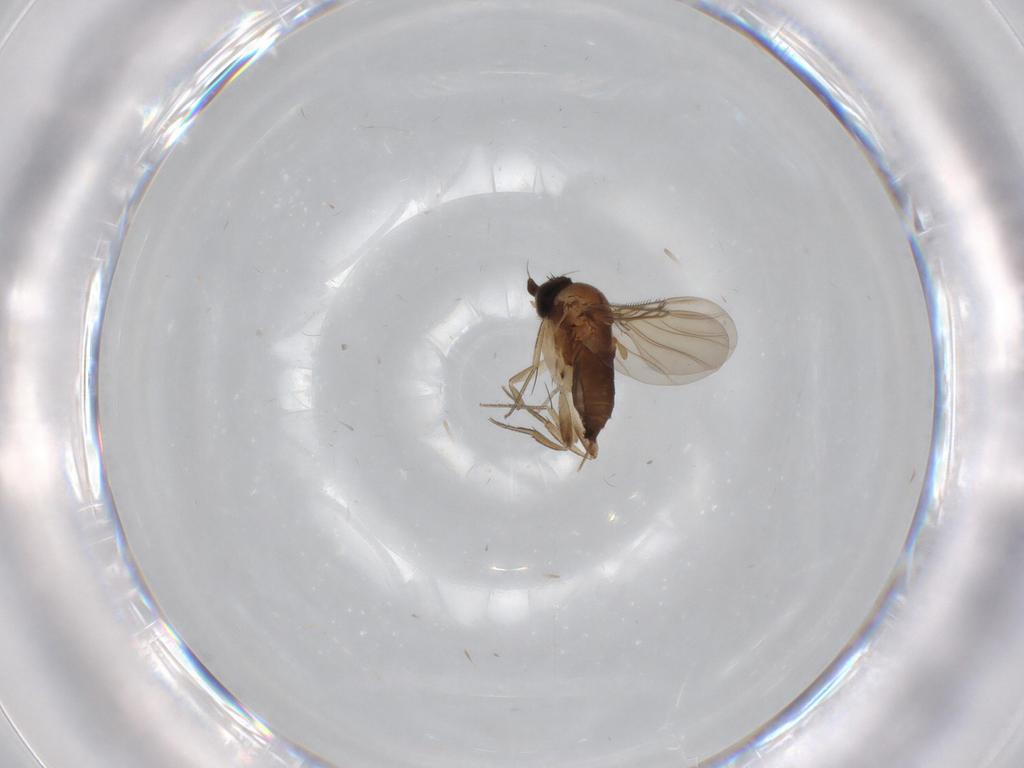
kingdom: Animalia
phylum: Arthropoda
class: Insecta
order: Diptera
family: Phoridae
